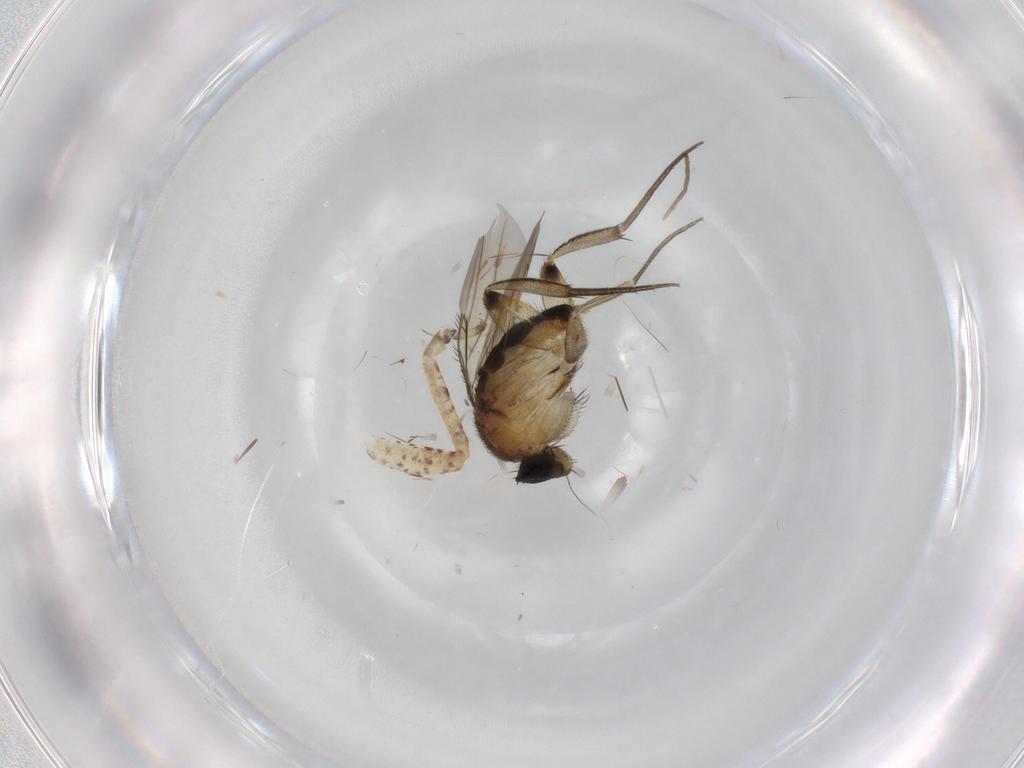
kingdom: Animalia
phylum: Arthropoda
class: Insecta
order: Diptera
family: Phoridae
